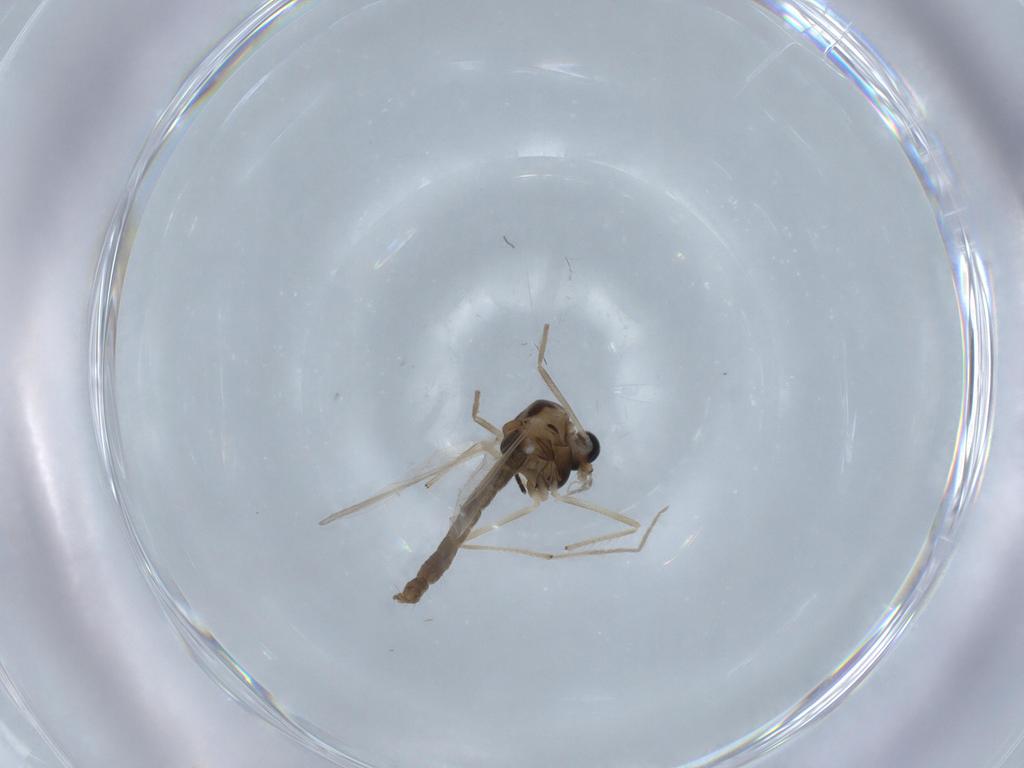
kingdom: Animalia
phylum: Arthropoda
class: Insecta
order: Diptera
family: Chironomidae
